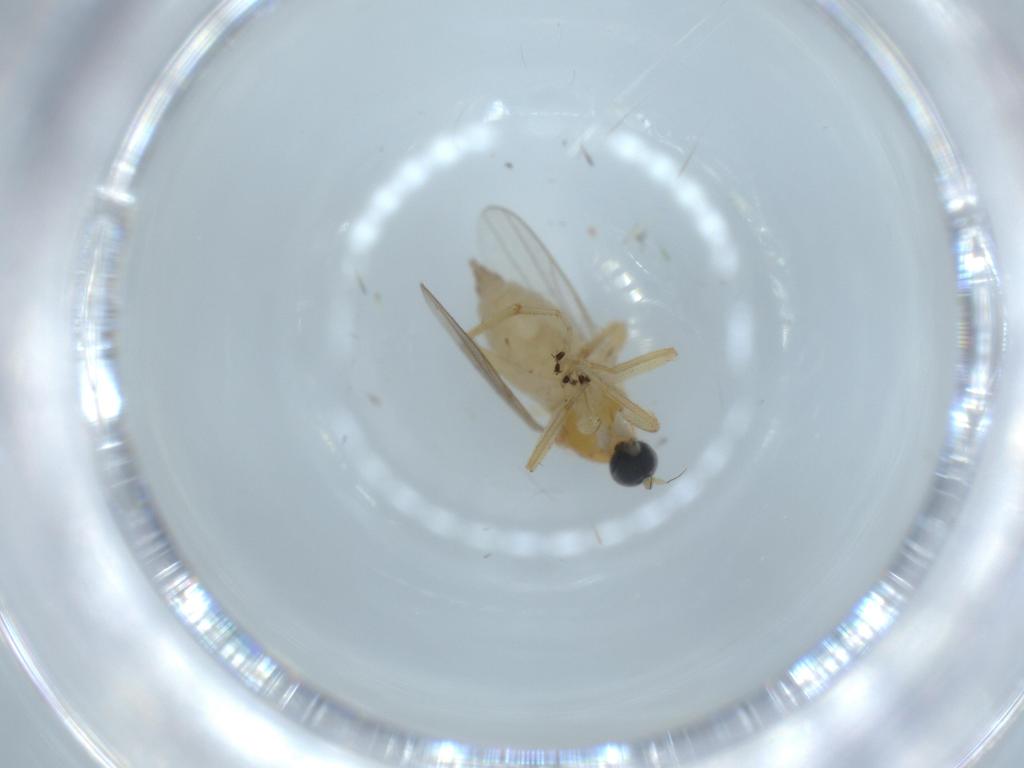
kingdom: Animalia
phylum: Arthropoda
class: Insecta
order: Diptera
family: Hybotidae
